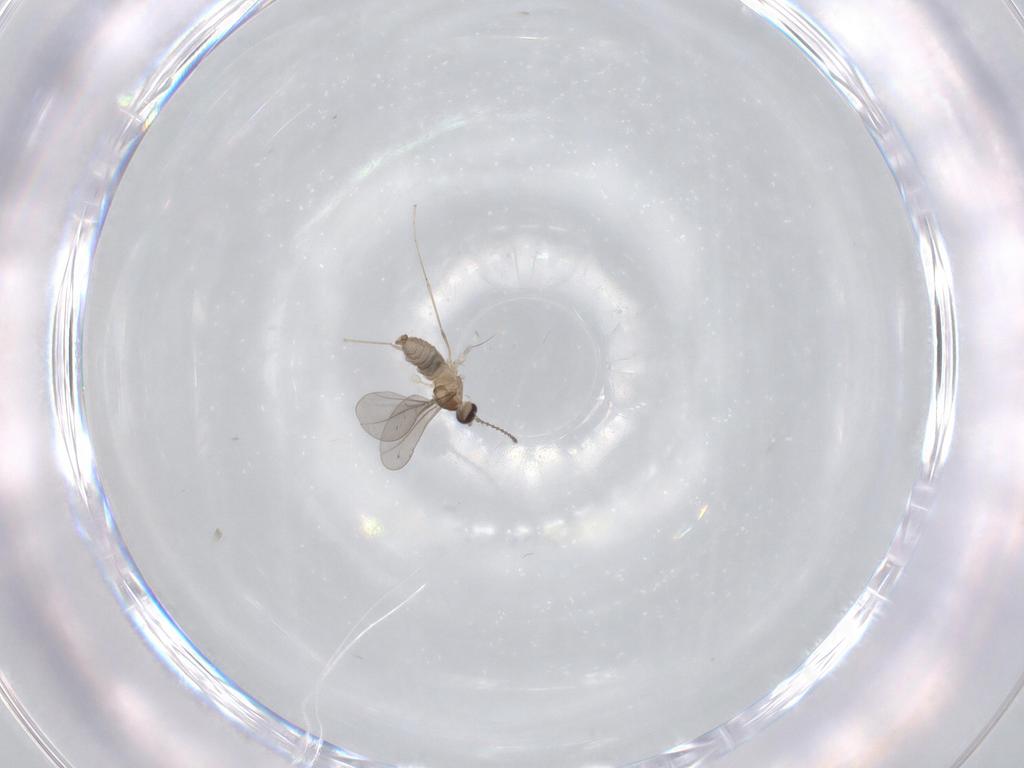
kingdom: Animalia
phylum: Arthropoda
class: Insecta
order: Diptera
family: Cecidomyiidae
